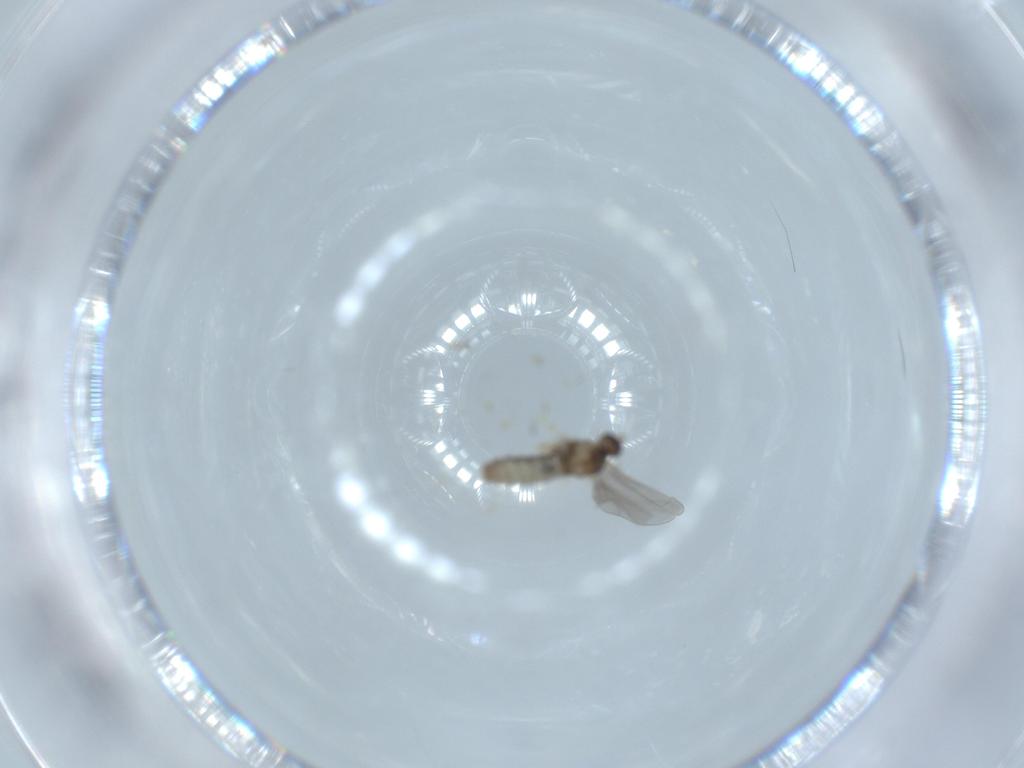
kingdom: Animalia
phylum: Arthropoda
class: Insecta
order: Diptera
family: Cecidomyiidae
